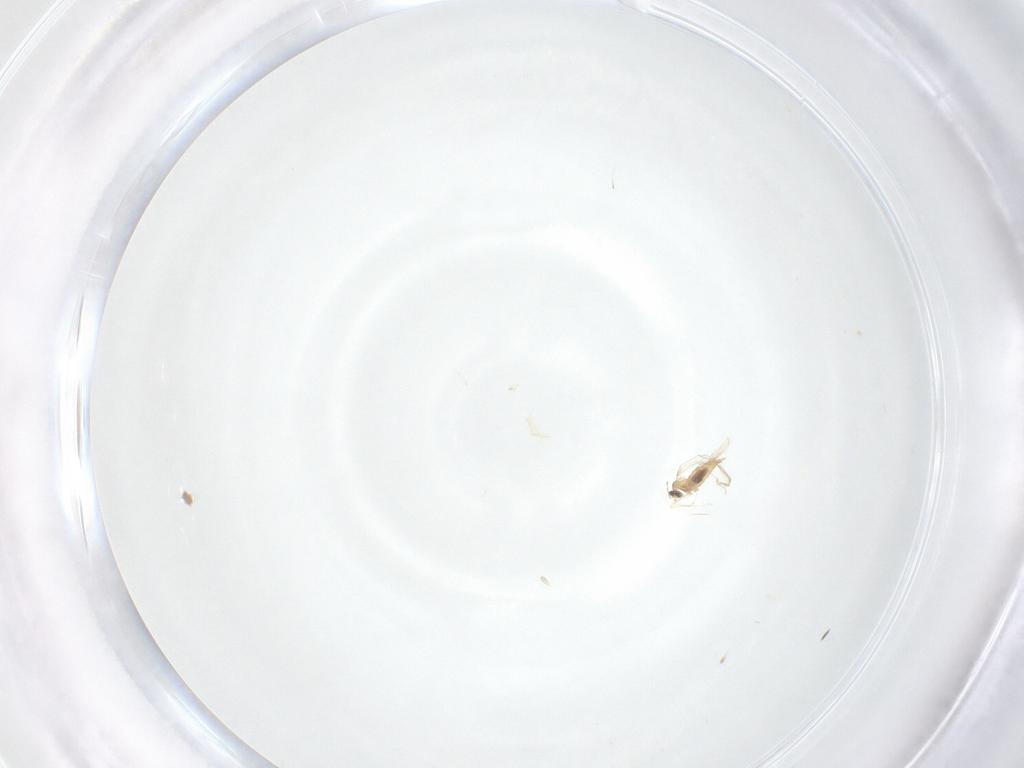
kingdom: Animalia
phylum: Arthropoda
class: Insecta
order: Diptera
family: Cecidomyiidae
